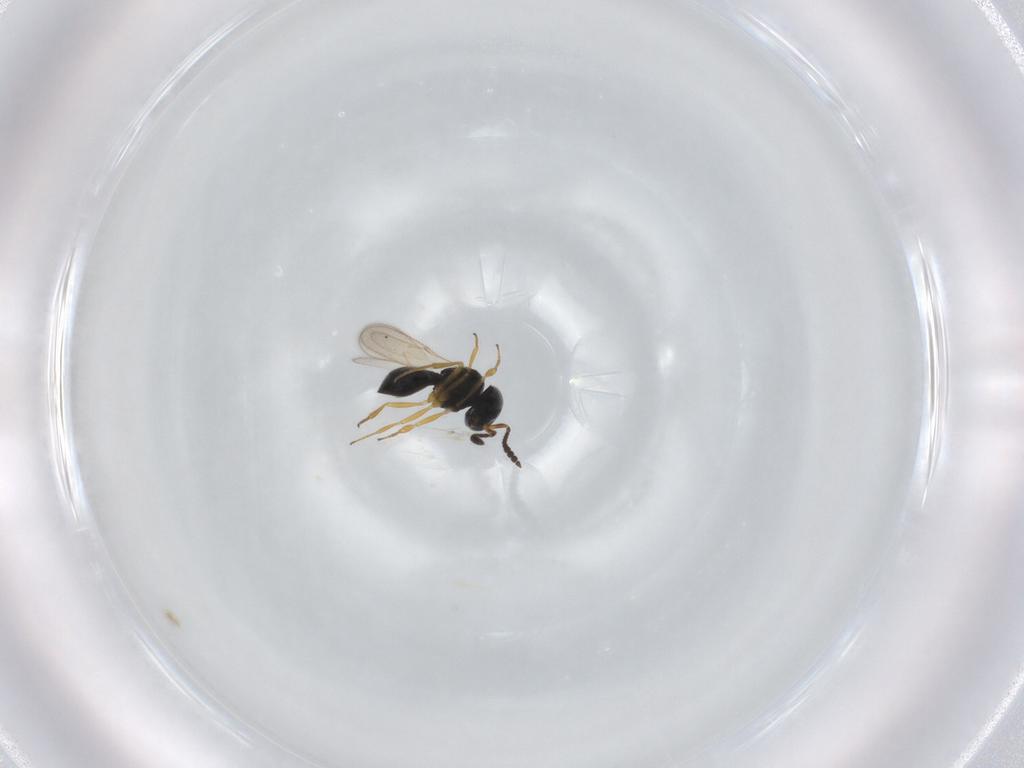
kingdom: Animalia
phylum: Arthropoda
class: Insecta
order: Hymenoptera
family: Scelionidae
